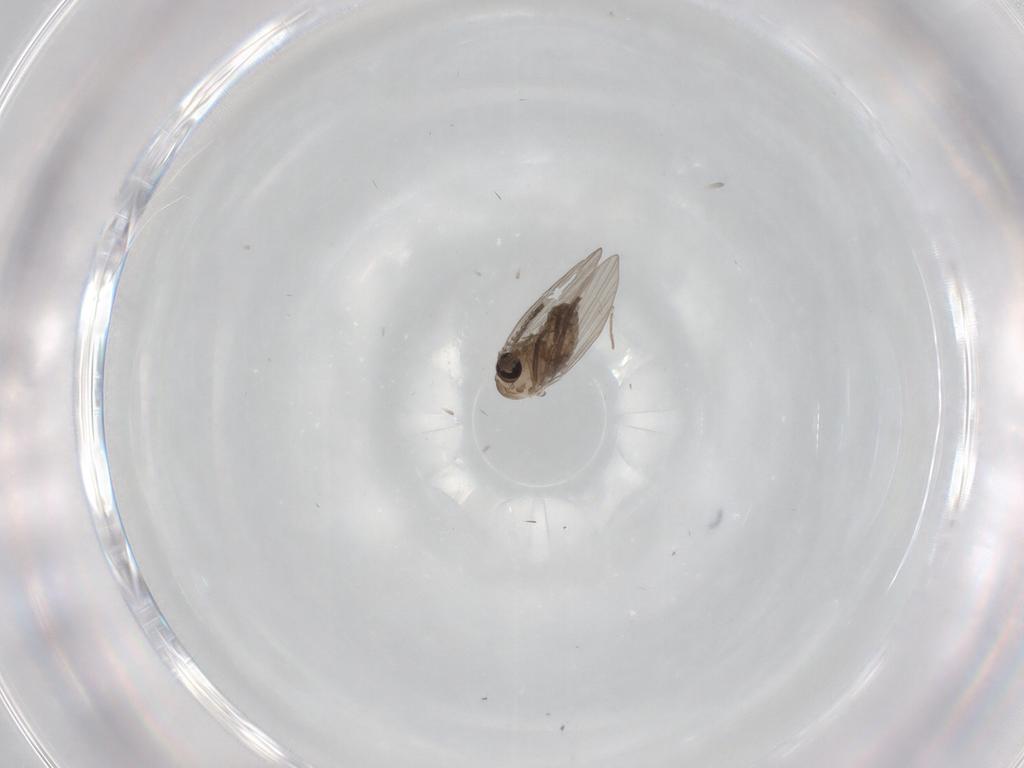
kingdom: Animalia
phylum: Arthropoda
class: Insecta
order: Diptera
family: Psychodidae
